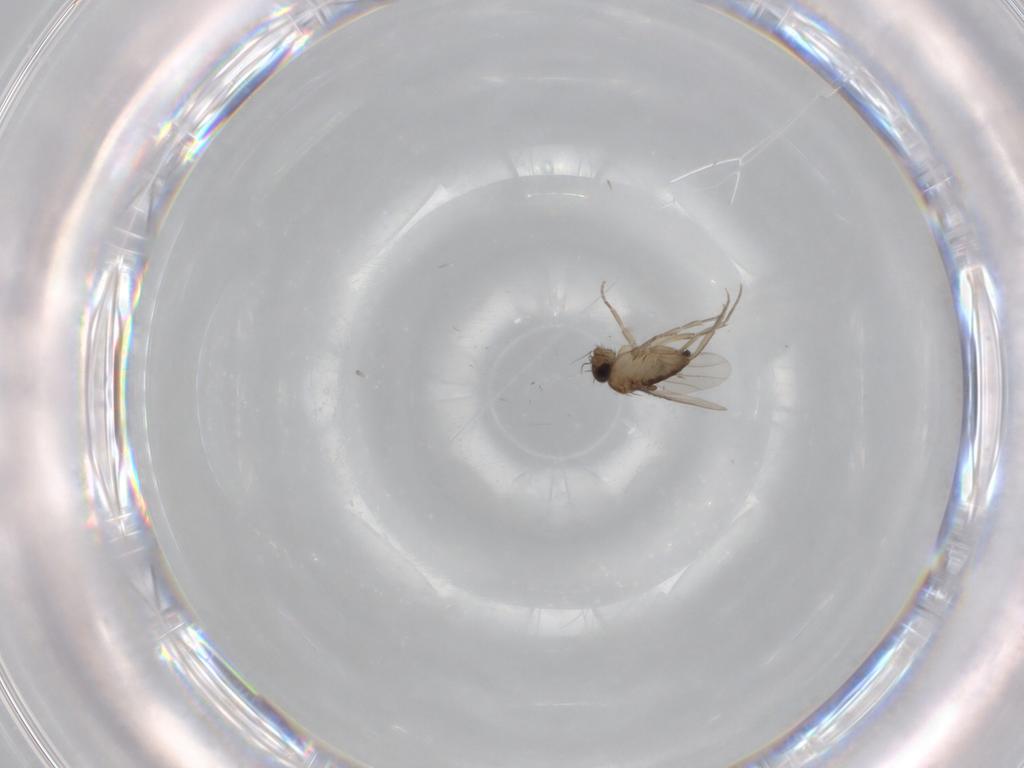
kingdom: Animalia
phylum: Arthropoda
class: Insecta
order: Diptera
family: Phoridae
